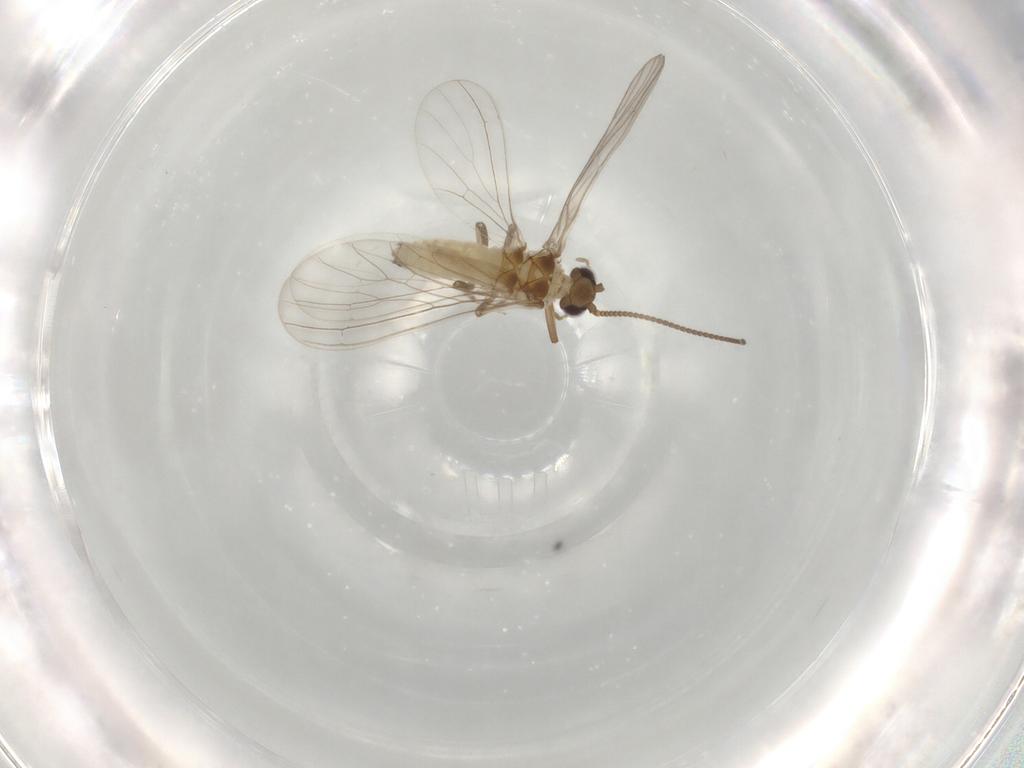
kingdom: Animalia
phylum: Arthropoda
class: Insecta
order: Neuroptera
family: Coniopterygidae
